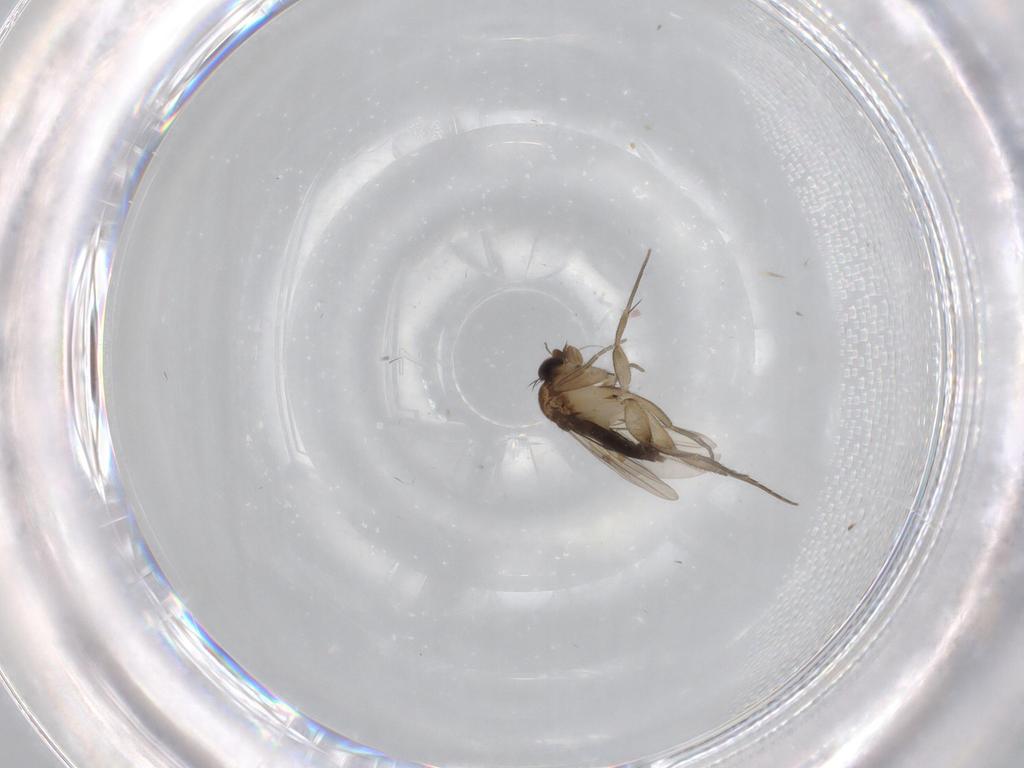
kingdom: Animalia
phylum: Arthropoda
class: Insecta
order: Diptera
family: Phoridae
